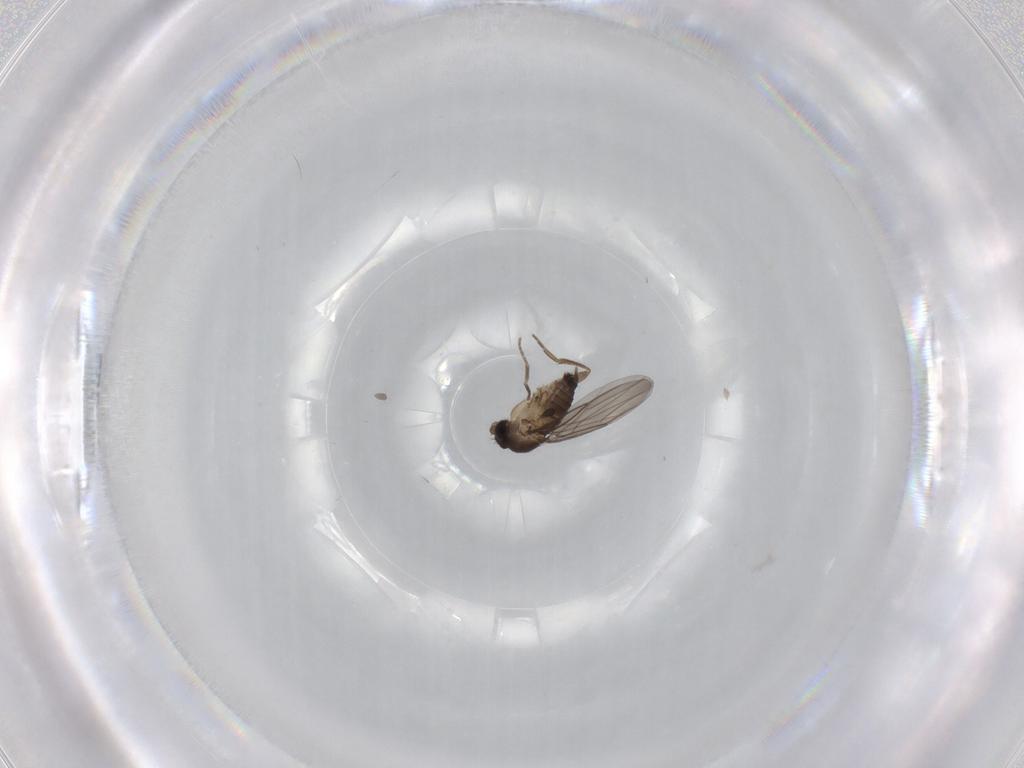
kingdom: Animalia
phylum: Arthropoda
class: Insecta
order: Diptera
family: Phoridae
